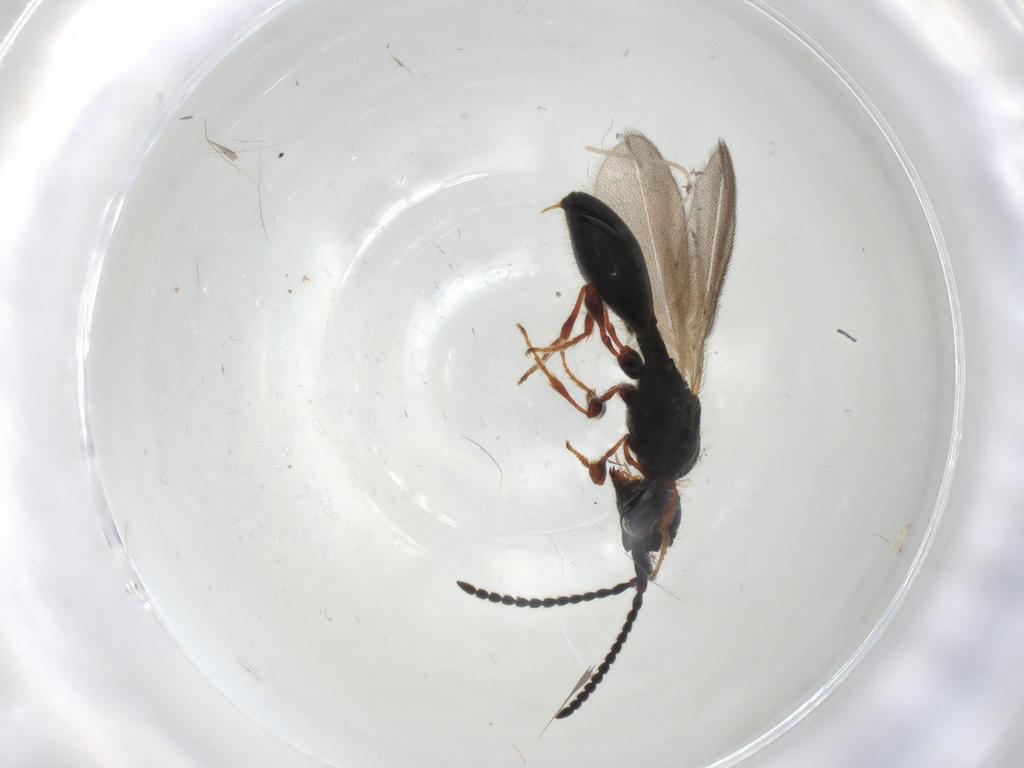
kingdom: Animalia
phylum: Arthropoda
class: Insecta
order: Hymenoptera
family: Diapriidae
